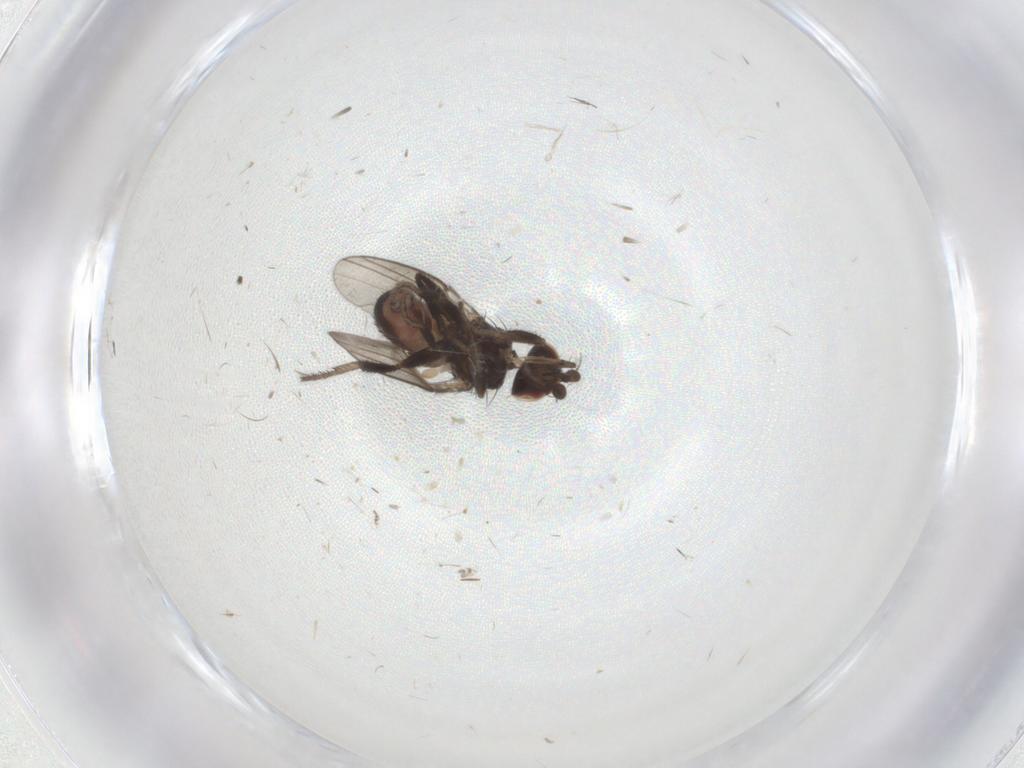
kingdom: Animalia
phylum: Arthropoda
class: Insecta
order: Diptera
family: Milichiidae
